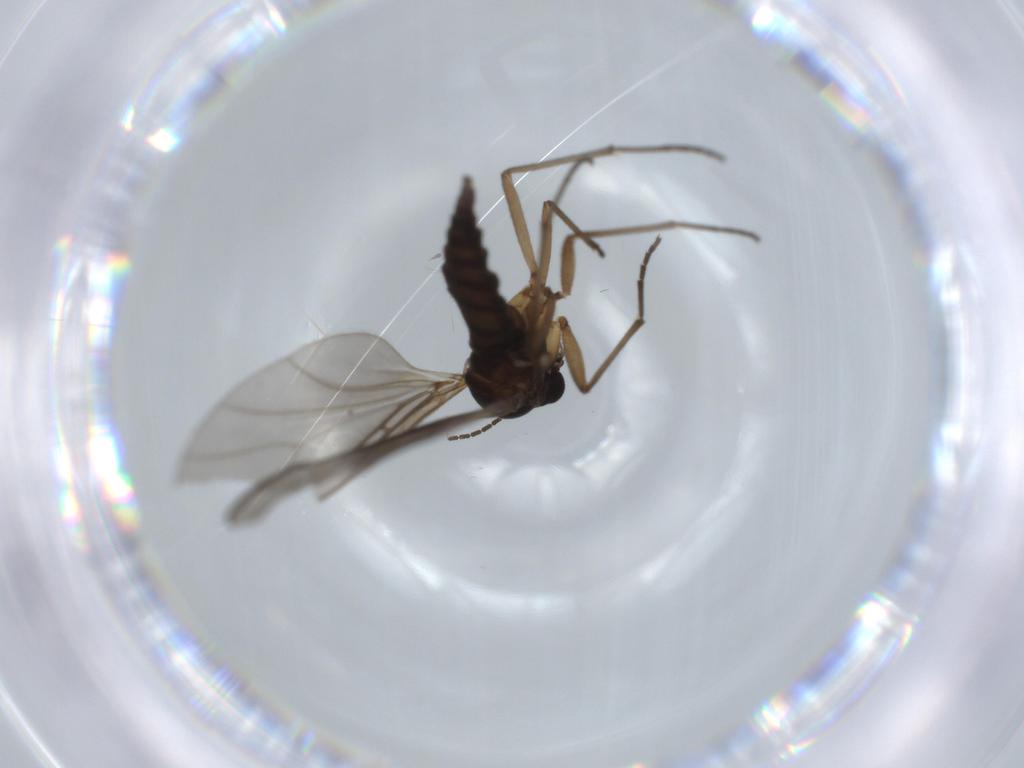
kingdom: Animalia
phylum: Arthropoda
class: Insecta
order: Diptera
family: Sciaridae
